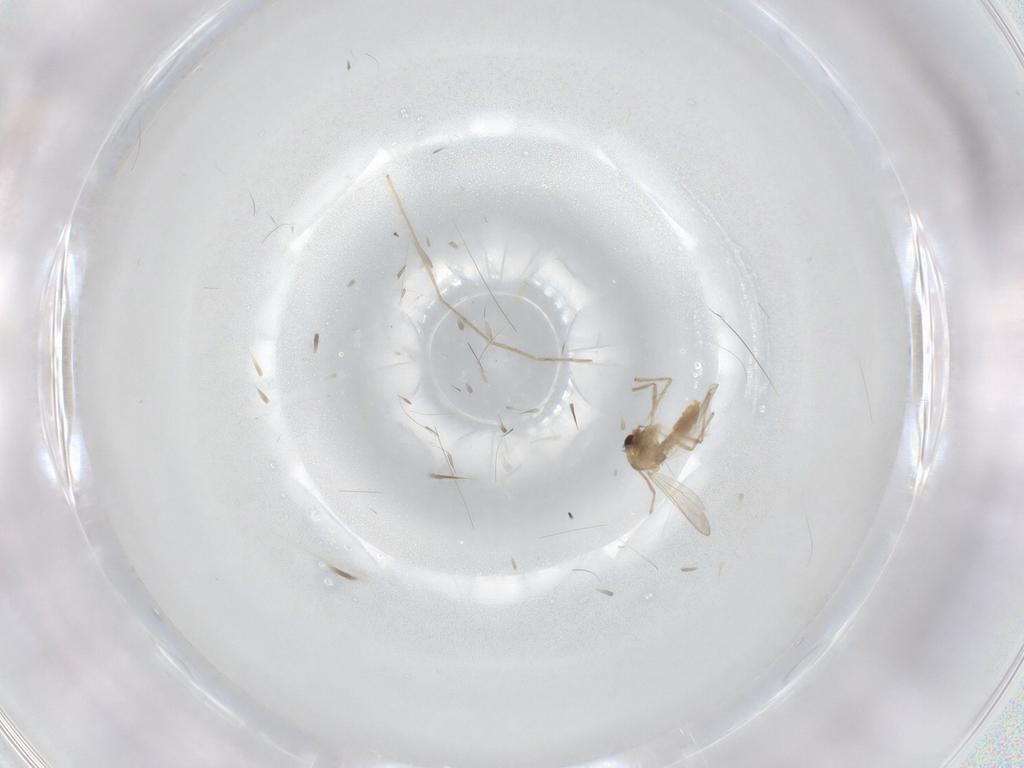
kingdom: Animalia
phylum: Arthropoda
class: Insecta
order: Diptera
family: Chironomidae
